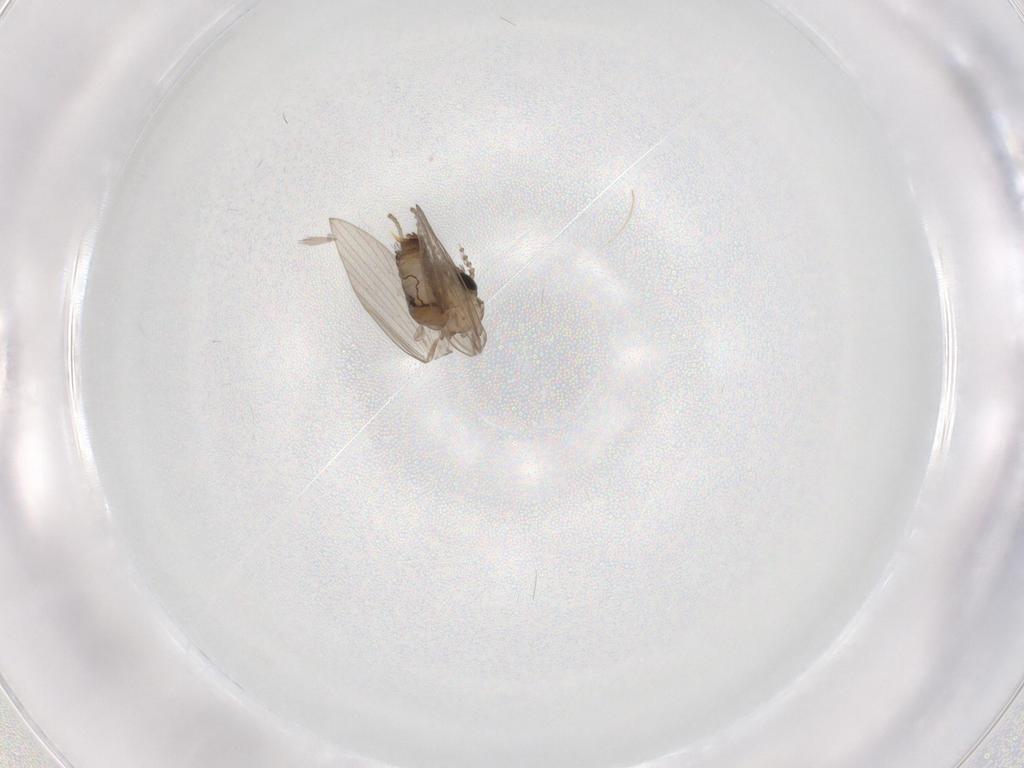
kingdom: Animalia
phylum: Arthropoda
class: Insecta
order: Diptera
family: Psychodidae
